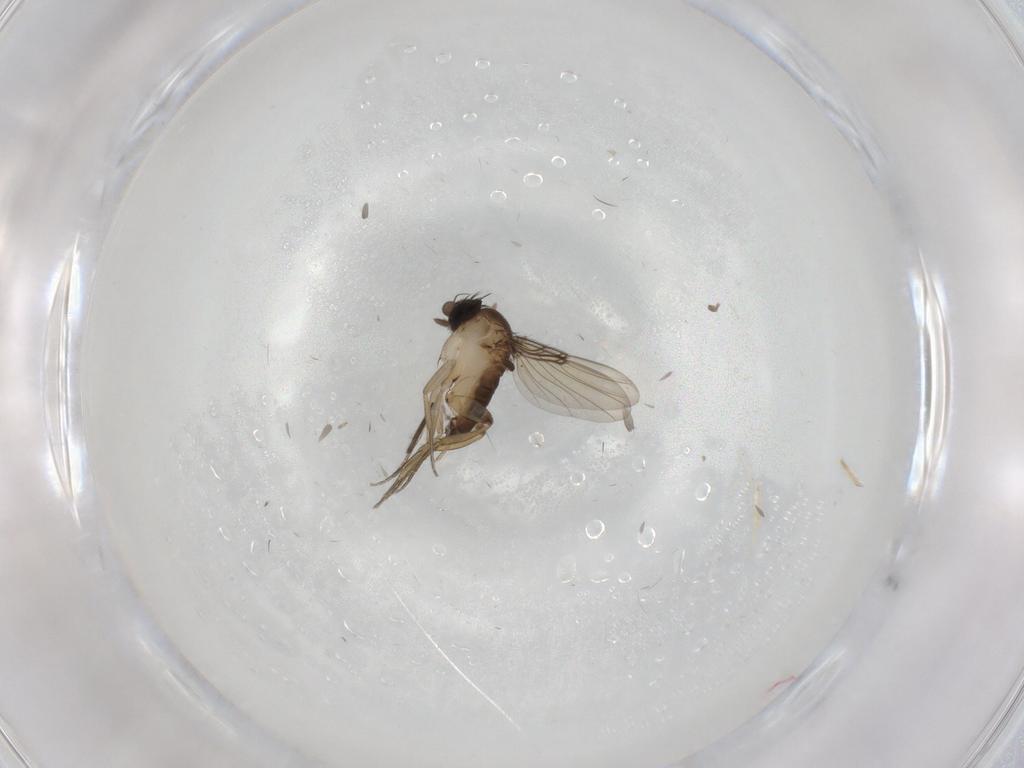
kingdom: Animalia
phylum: Arthropoda
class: Insecta
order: Diptera
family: Phoridae
